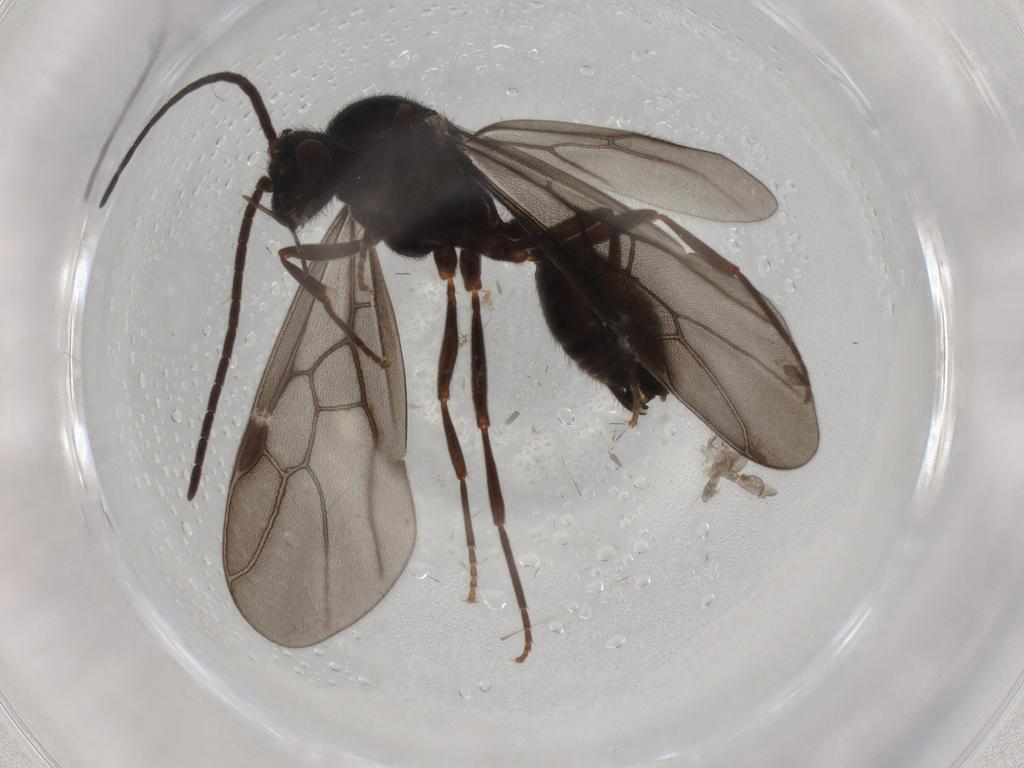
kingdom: Animalia
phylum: Arthropoda
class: Insecta
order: Hymenoptera
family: Formicidae
